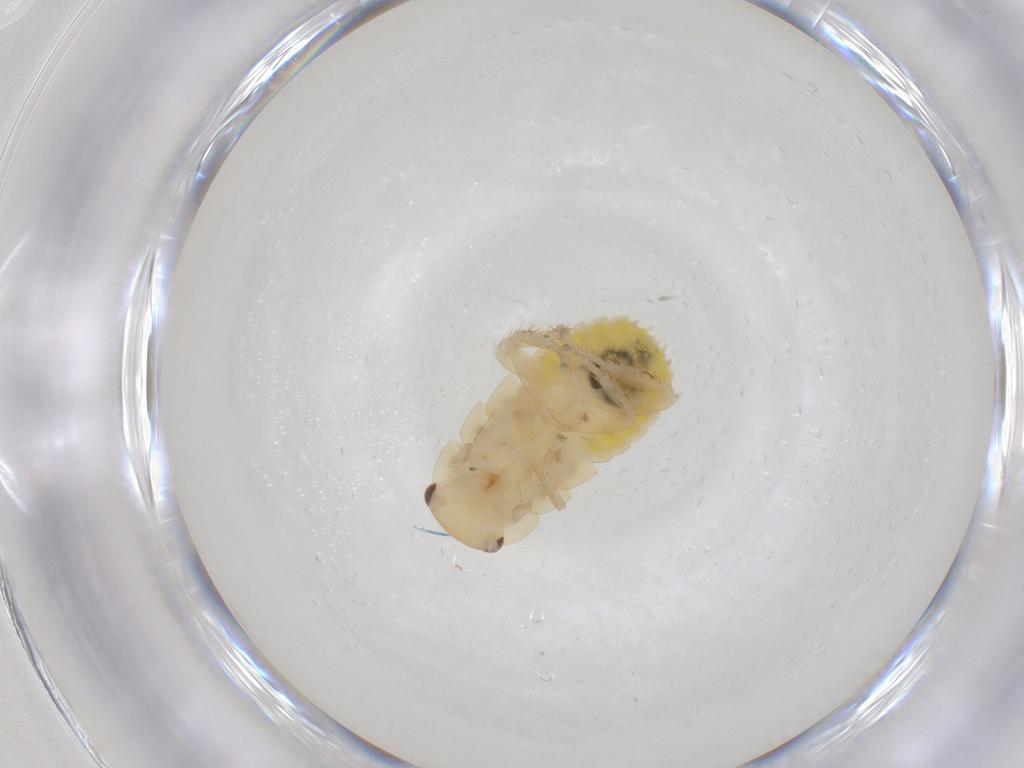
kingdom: Animalia
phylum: Arthropoda
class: Insecta
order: Blattodea
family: Ectobiidae
